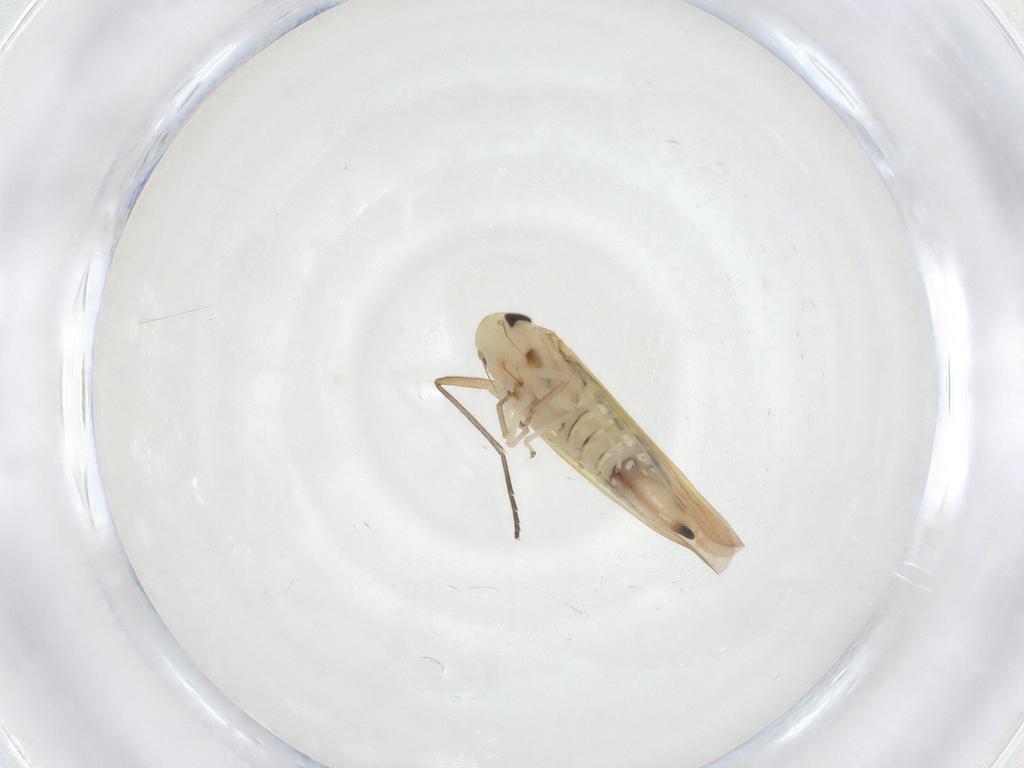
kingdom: Animalia
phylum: Arthropoda
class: Insecta
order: Hemiptera
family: Cicadellidae
